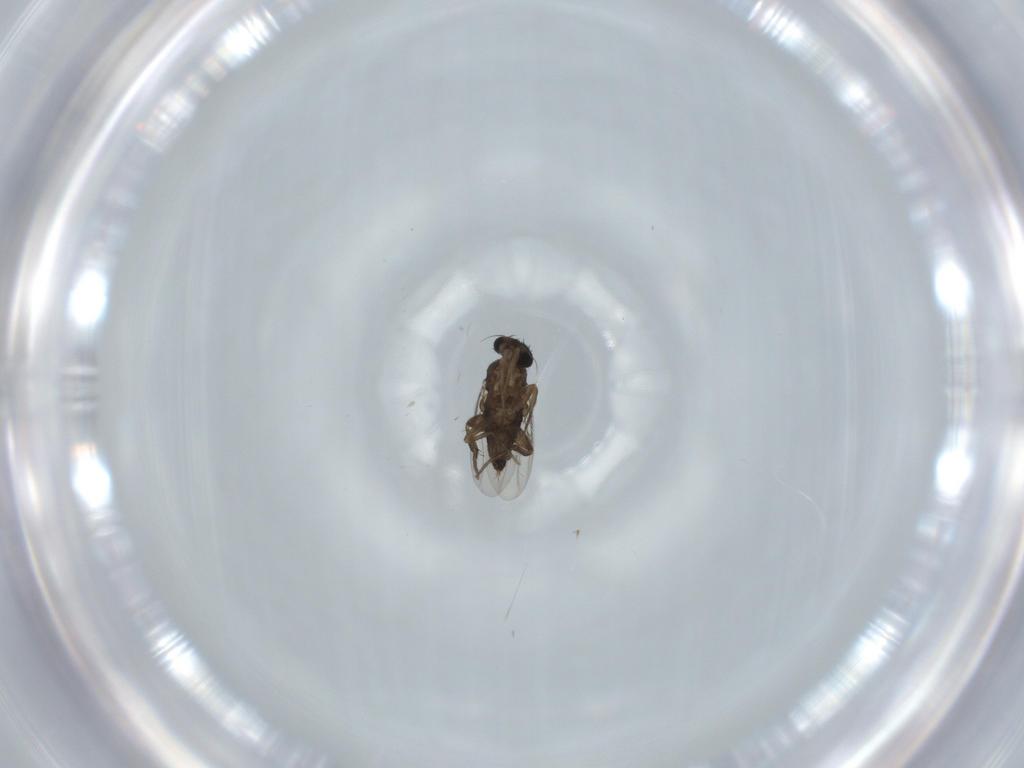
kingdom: Animalia
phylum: Arthropoda
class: Insecta
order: Diptera
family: Phoridae
